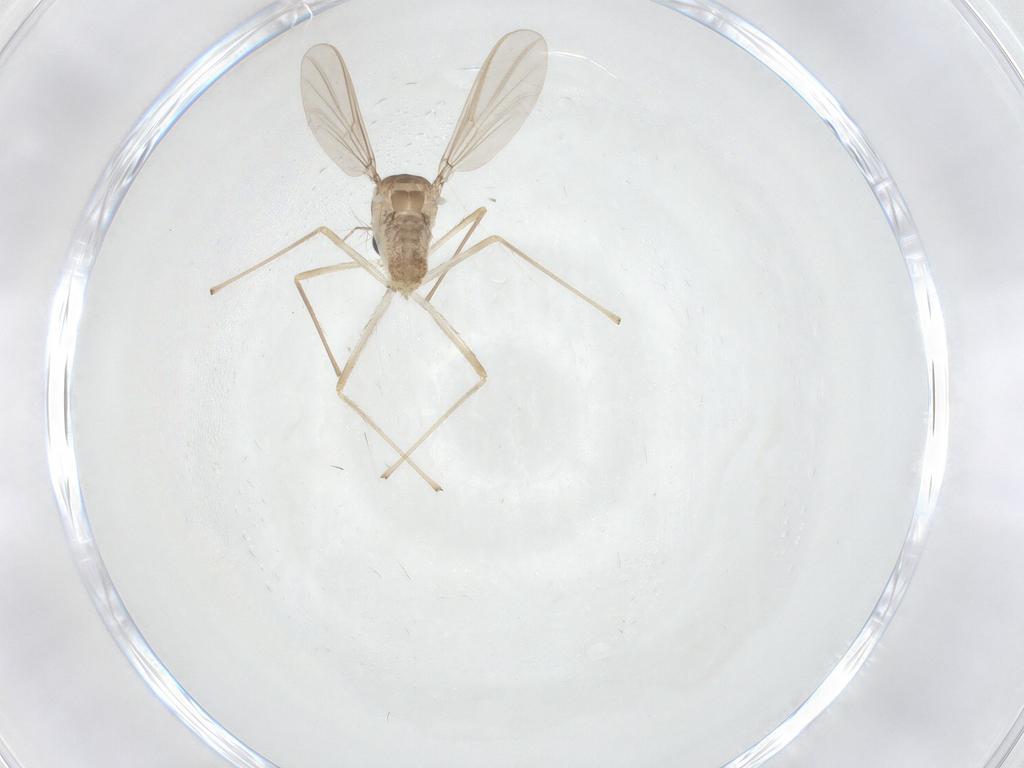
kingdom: Animalia
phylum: Arthropoda
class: Insecta
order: Diptera
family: Chironomidae
